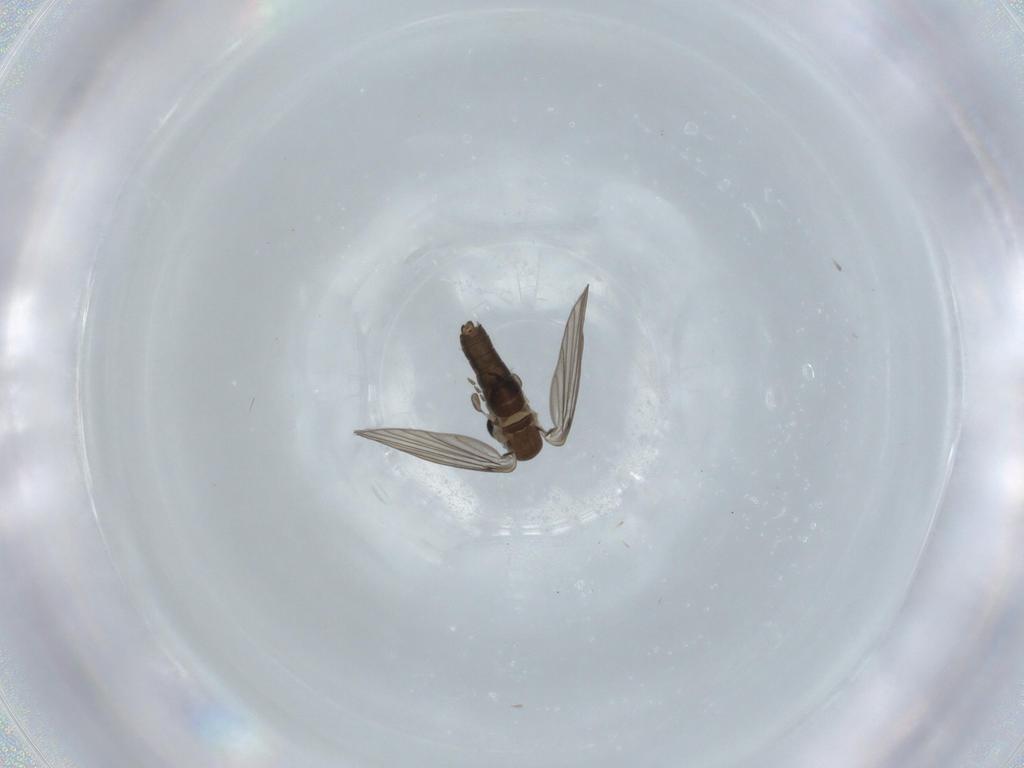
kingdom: Animalia
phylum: Arthropoda
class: Insecta
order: Diptera
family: Psychodidae
